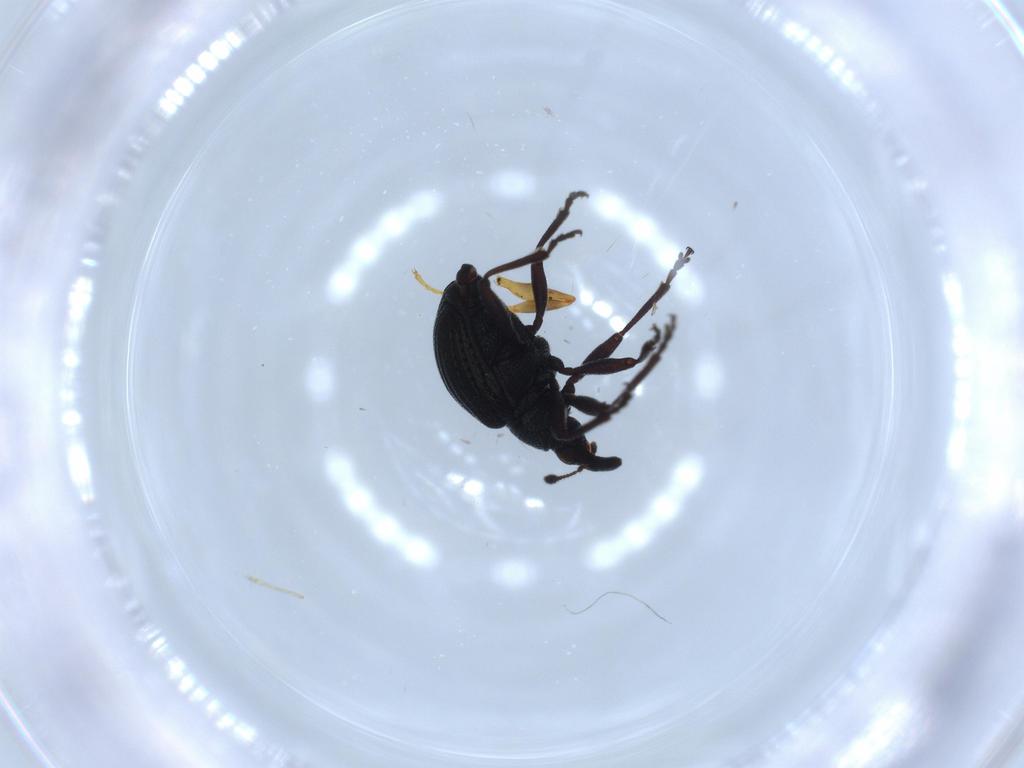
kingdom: Animalia
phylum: Arthropoda
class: Insecta
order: Coleoptera
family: Brentidae
